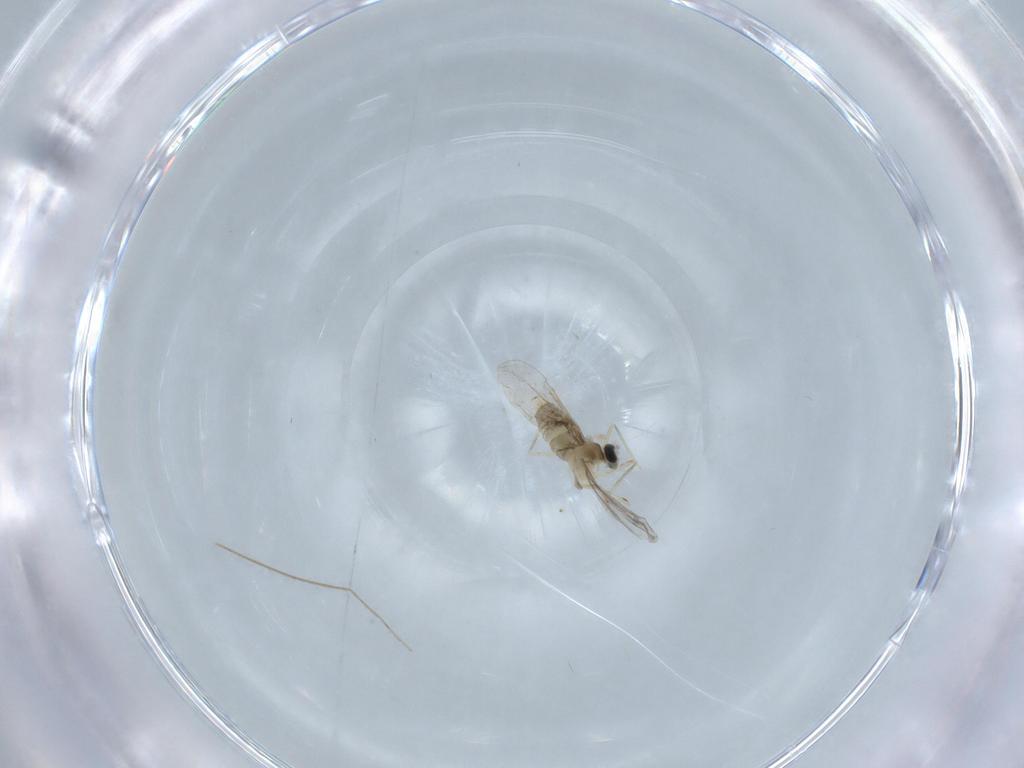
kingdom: Animalia
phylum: Arthropoda
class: Insecta
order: Diptera
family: Cecidomyiidae
